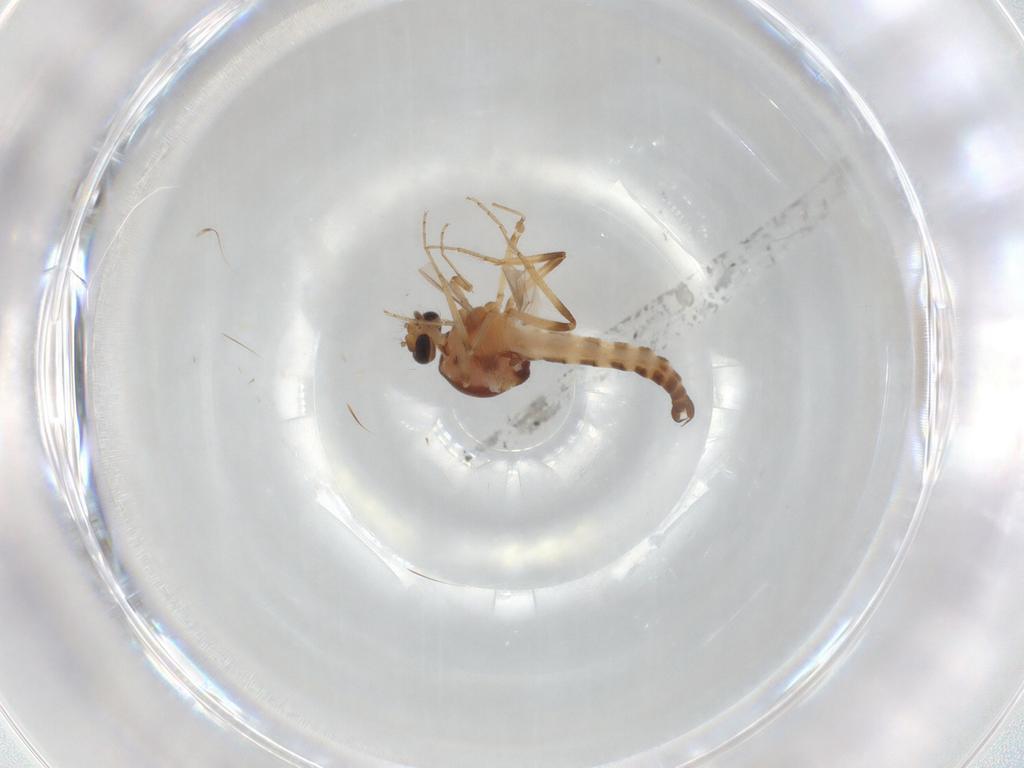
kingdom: Animalia
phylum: Arthropoda
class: Insecta
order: Diptera
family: Ceratopogonidae
